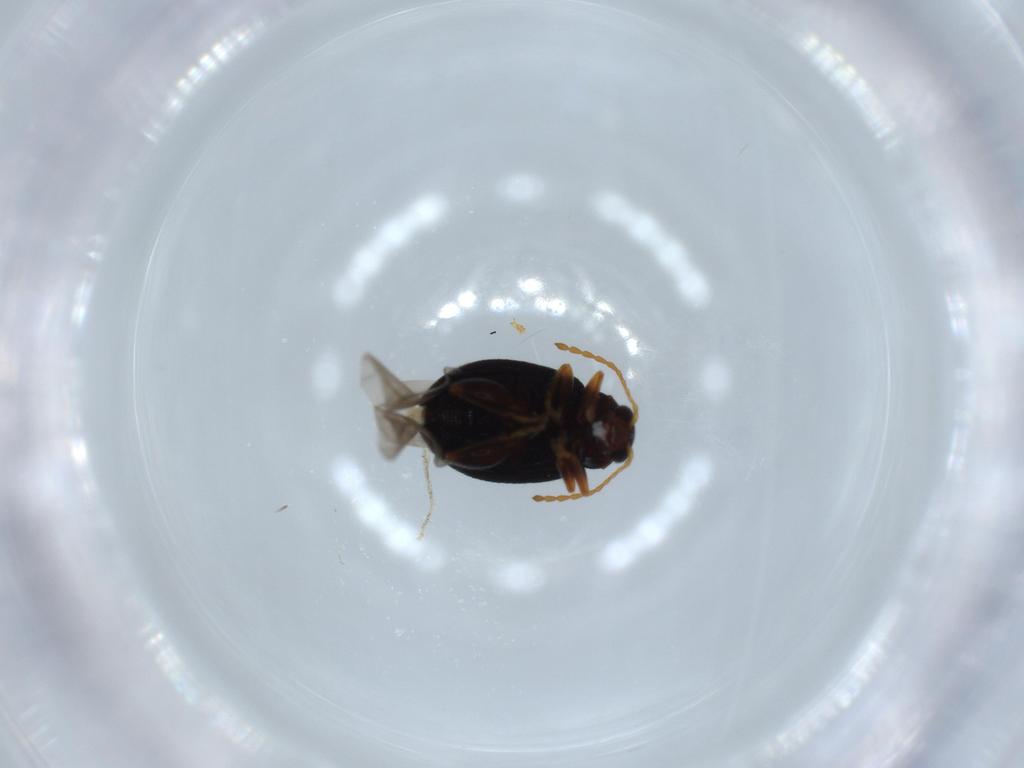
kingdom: Animalia
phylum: Arthropoda
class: Insecta
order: Coleoptera
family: Chrysomelidae
